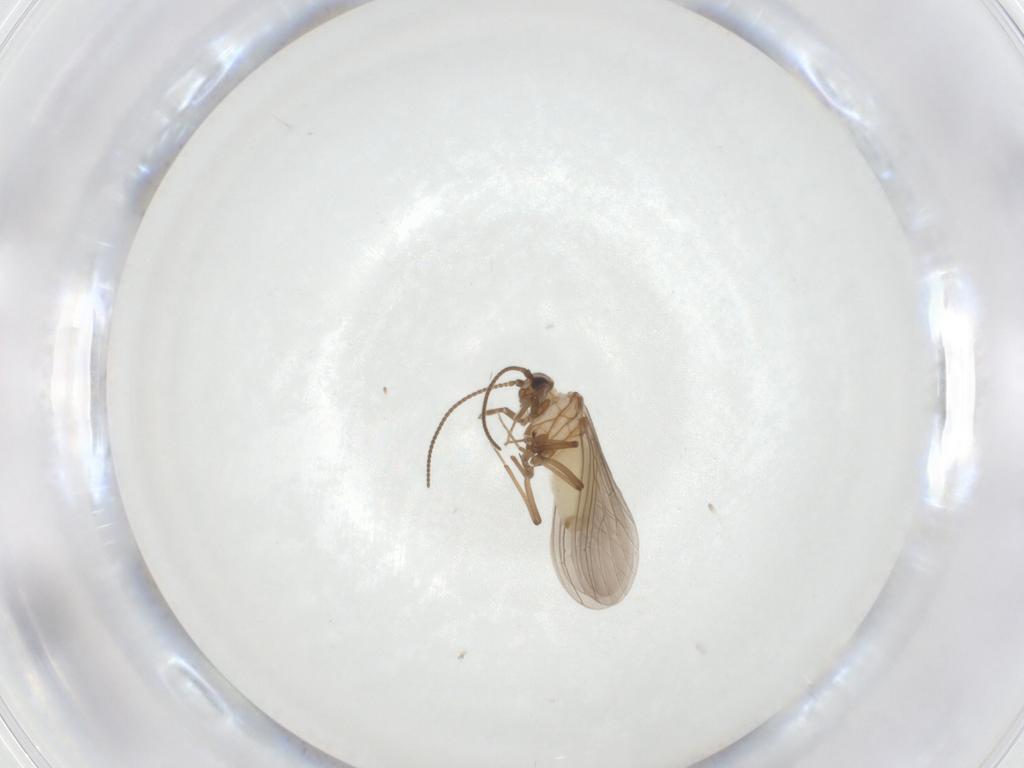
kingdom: Animalia
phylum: Arthropoda
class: Insecta
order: Neuroptera
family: Coniopterygidae
